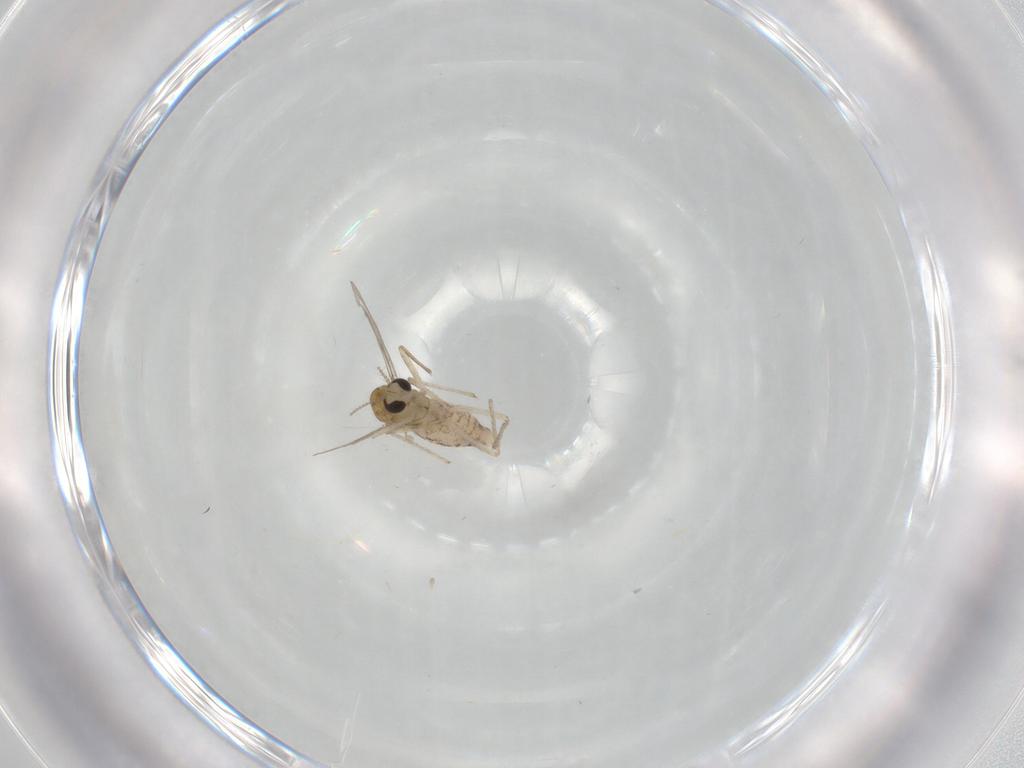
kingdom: Animalia
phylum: Arthropoda
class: Insecta
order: Diptera
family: Chironomidae
